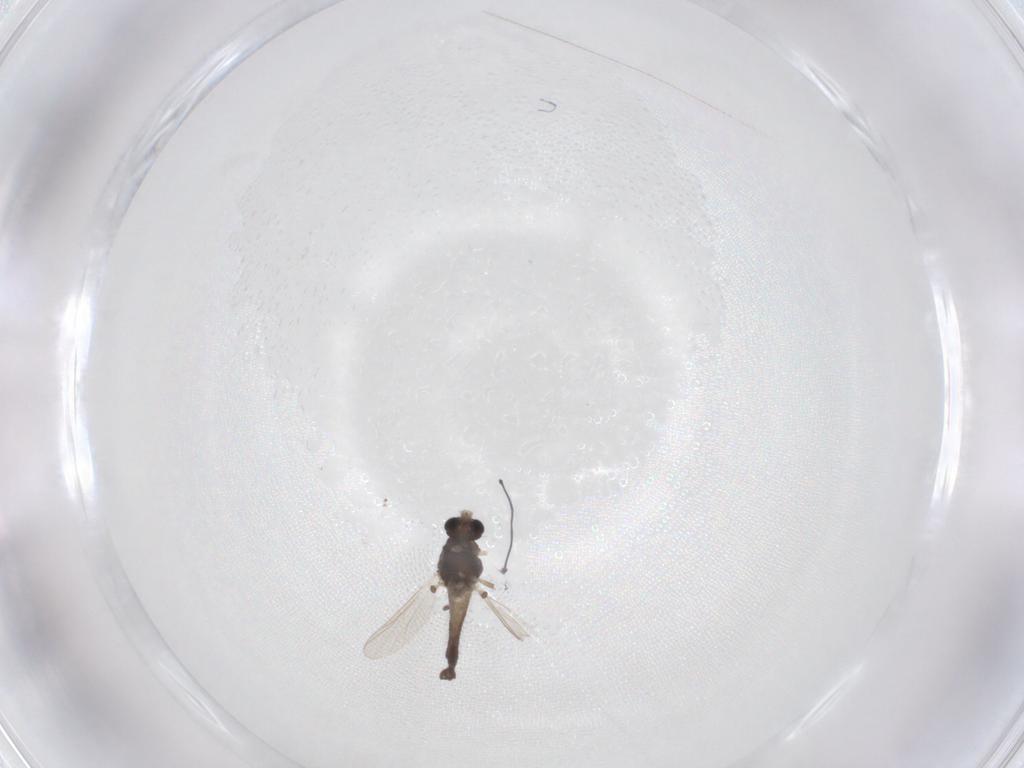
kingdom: Animalia
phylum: Arthropoda
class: Insecta
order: Diptera
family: Chironomidae
